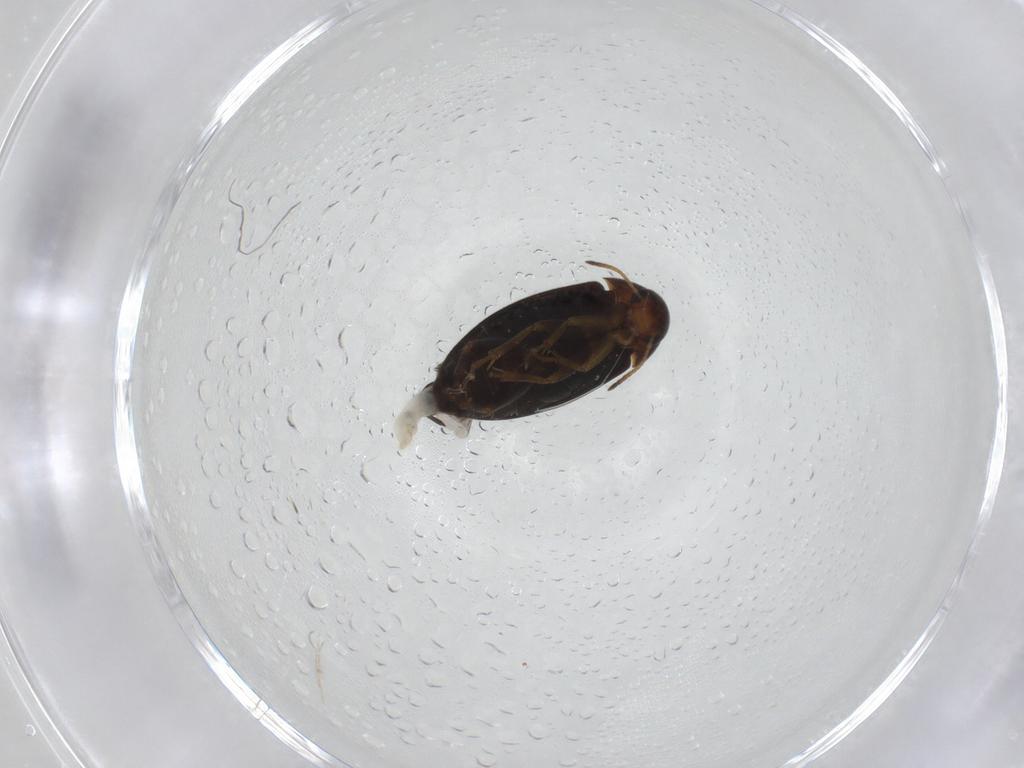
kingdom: Animalia
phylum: Arthropoda
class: Insecta
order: Coleoptera
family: Scraptiidae
